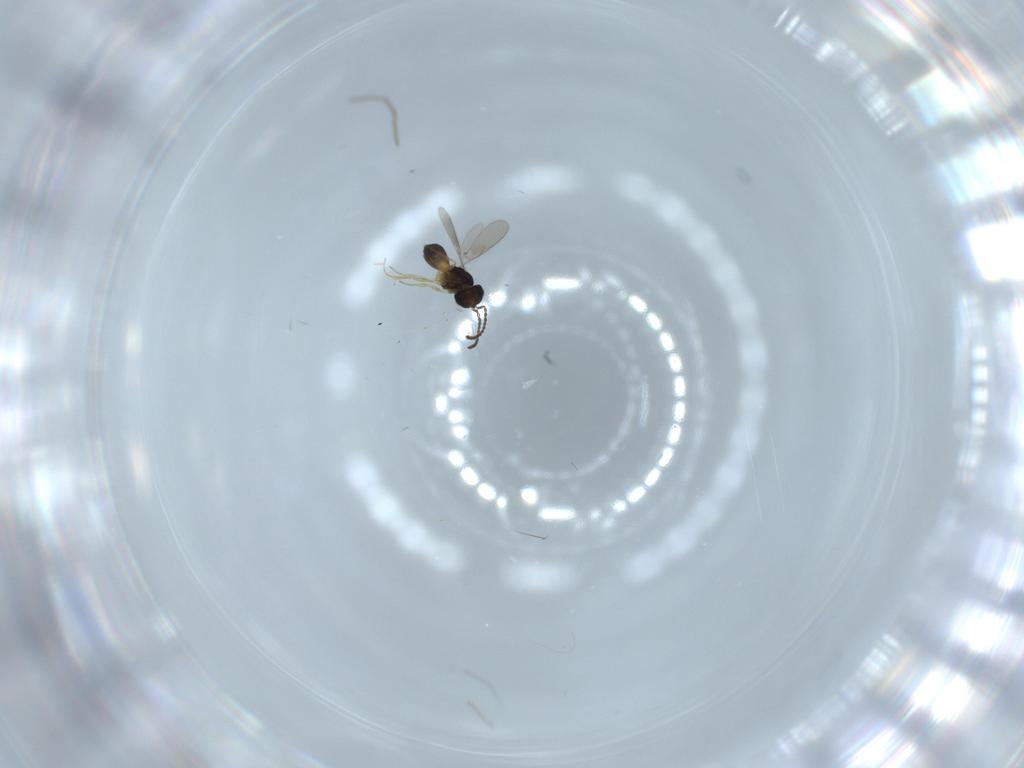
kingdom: Animalia
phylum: Arthropoda
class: Insecta
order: Hymenoptera
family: Scelionidae
